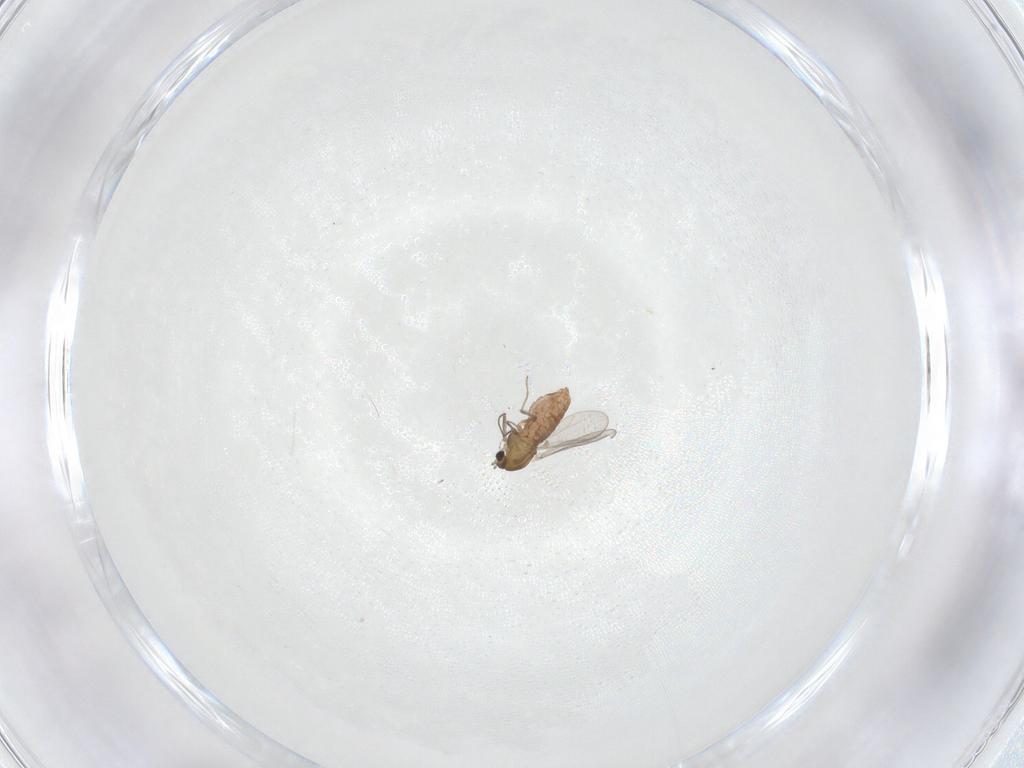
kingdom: Animalia
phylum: Arthropoda
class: Insecta
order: Diptera
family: Chironomidae
